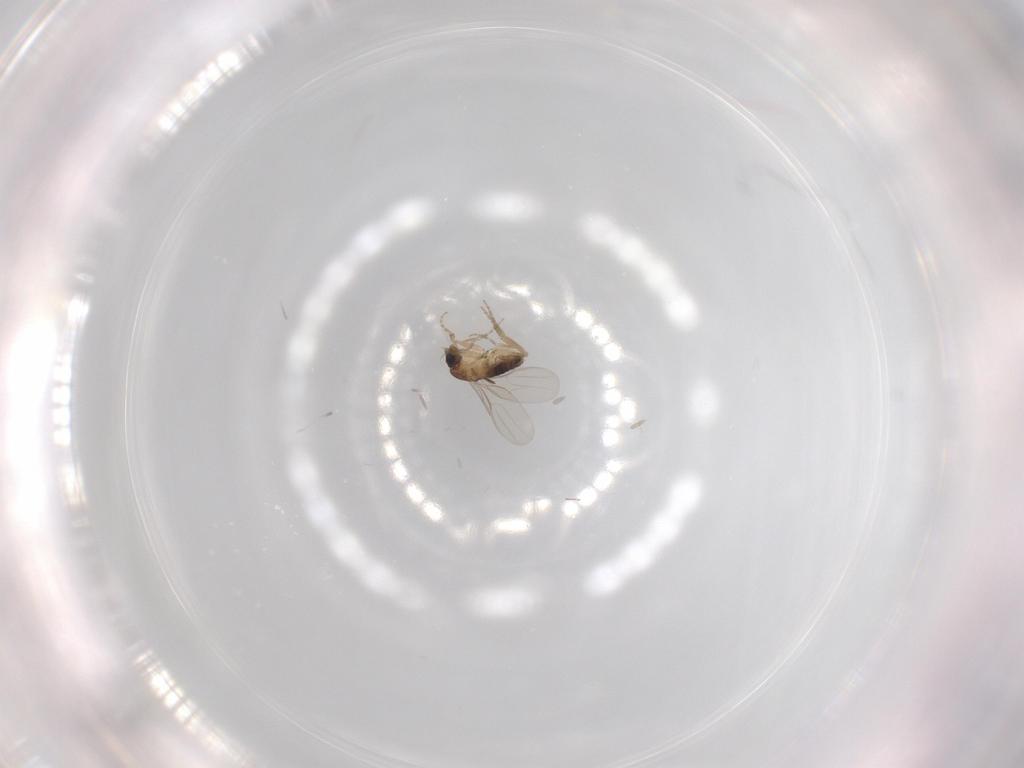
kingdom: Animalia
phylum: Arthropoda
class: Insecta
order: Diptera
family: Phoridae
